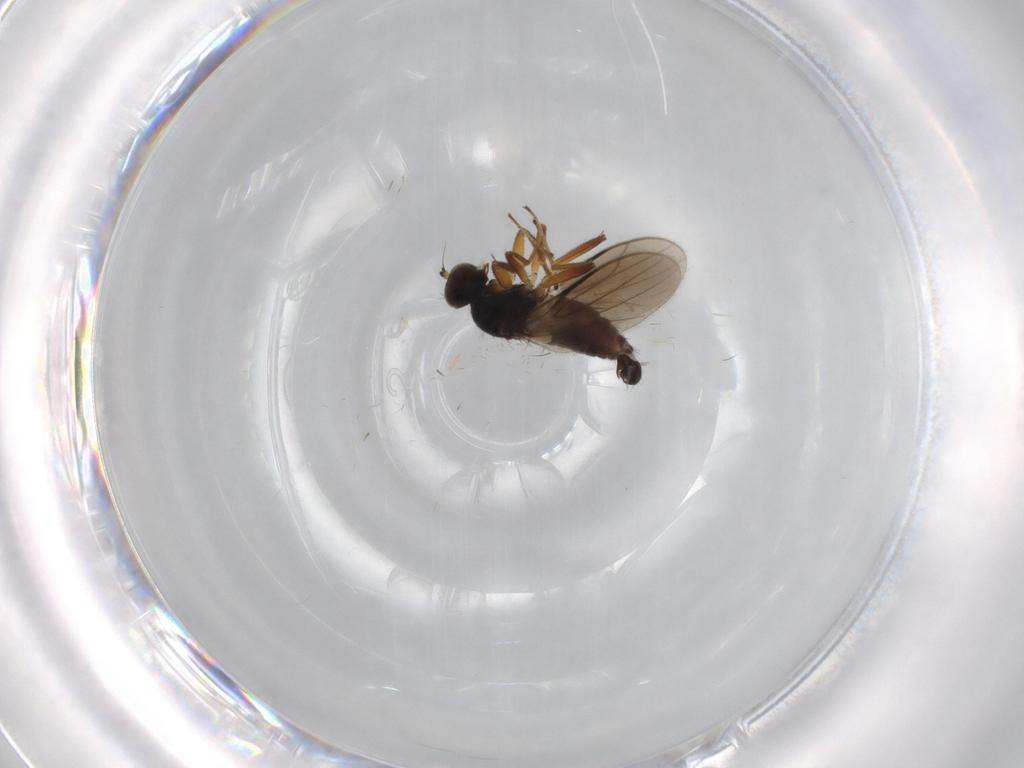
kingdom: Animalia
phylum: Arthropoda
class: Insecta
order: Diptera
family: Hybotidae
